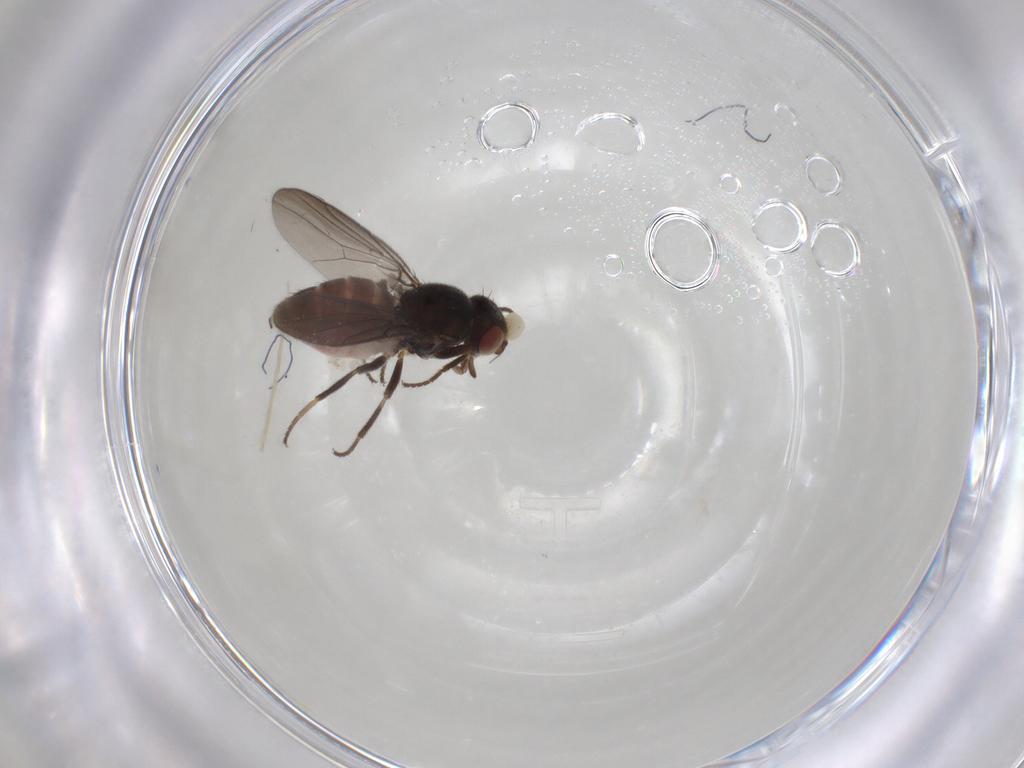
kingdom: Animalia
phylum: Arthropoda
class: Insecta
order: Diptera
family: Chloropidae
